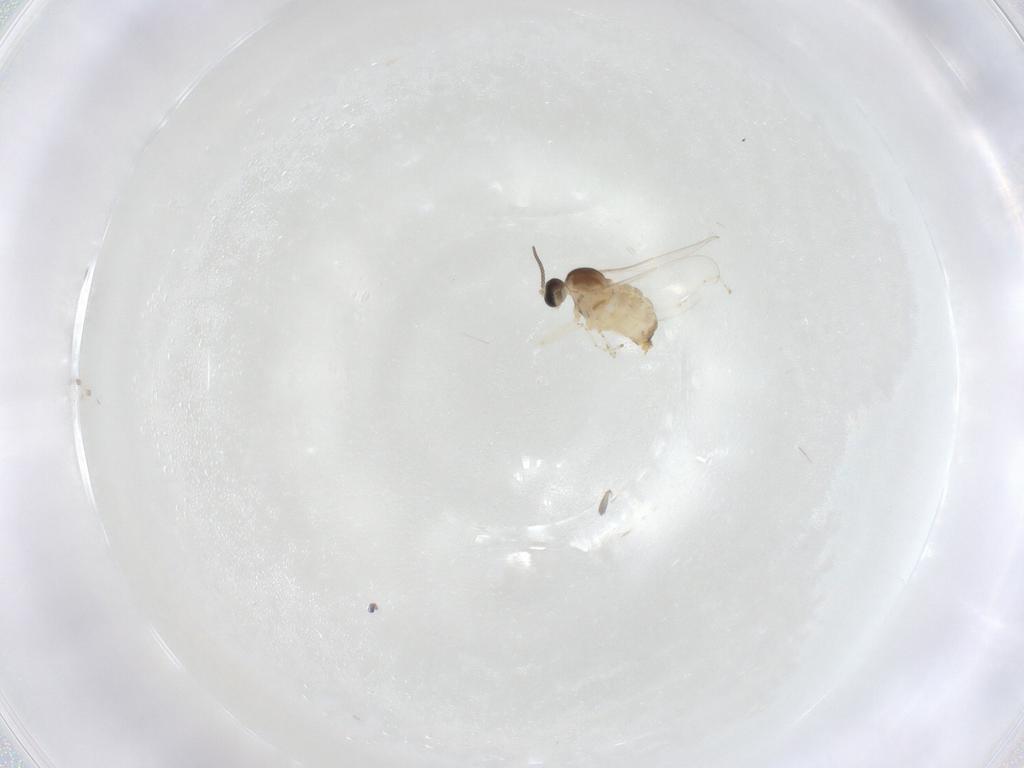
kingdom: Animalia
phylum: Arthropoda
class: Insecta
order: Diptera
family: Cecidomyiidae
